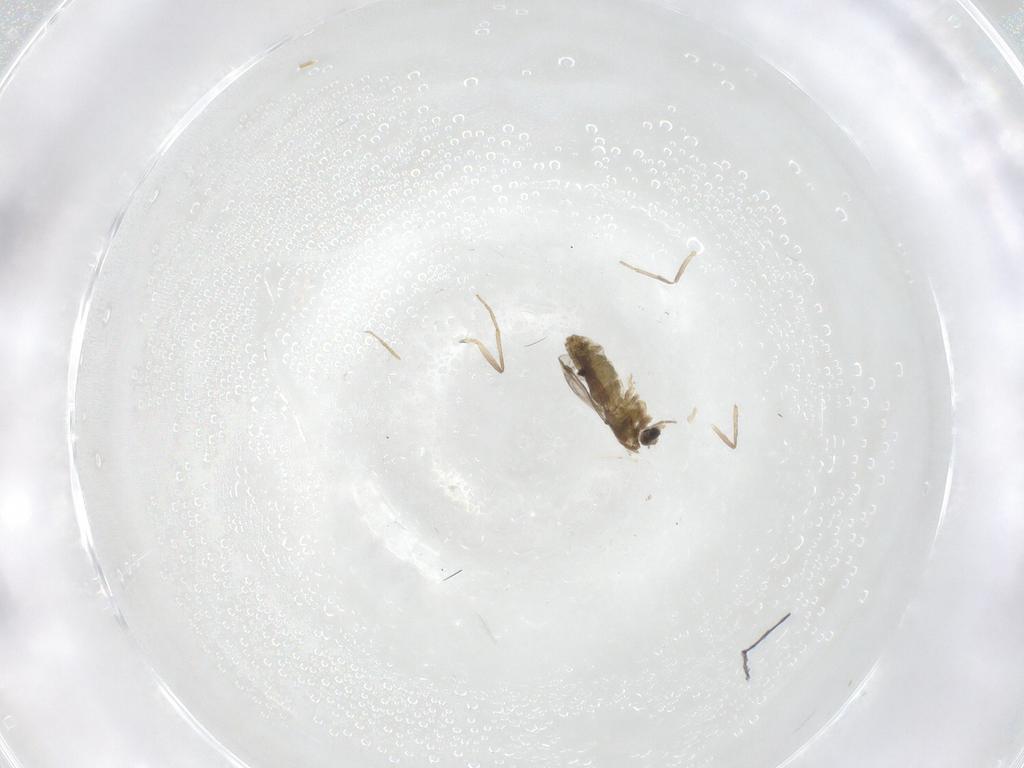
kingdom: Animalia
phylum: Arthropoda
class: Insecta
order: Diptera
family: Chironomidae
